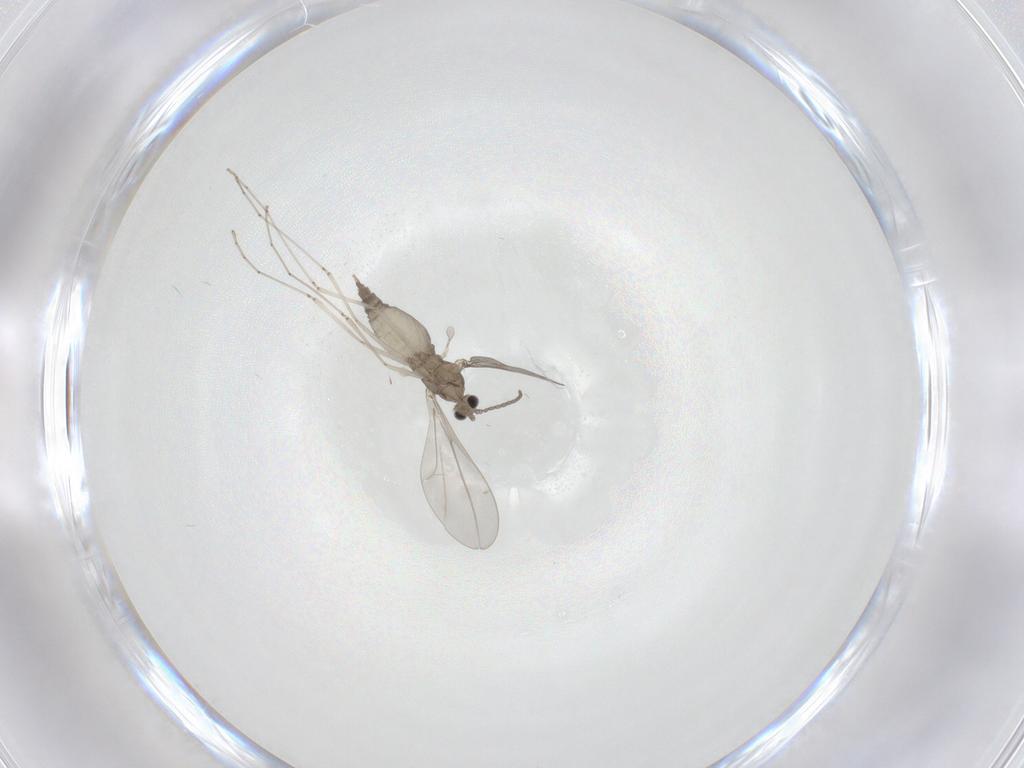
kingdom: Animalia
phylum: Arthropoda
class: Insecta
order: Diptera
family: Cecidomyiidae
